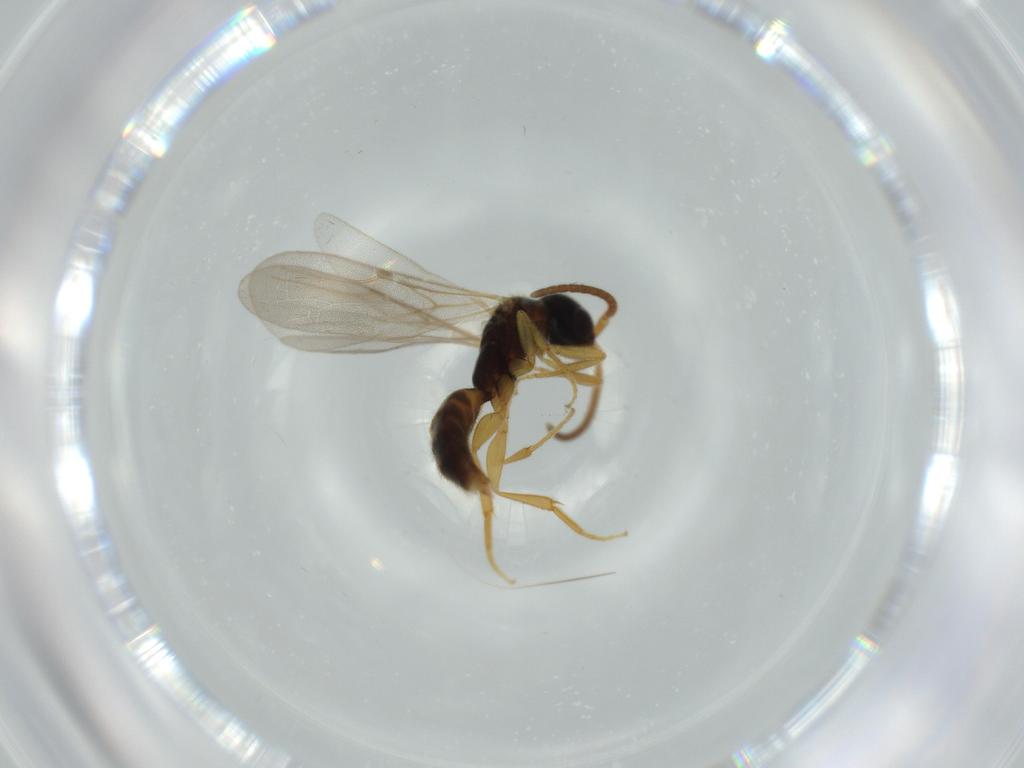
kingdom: Animalia
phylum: Arthropoda
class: Insecta
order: Hymenoptera
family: Bethylidae
